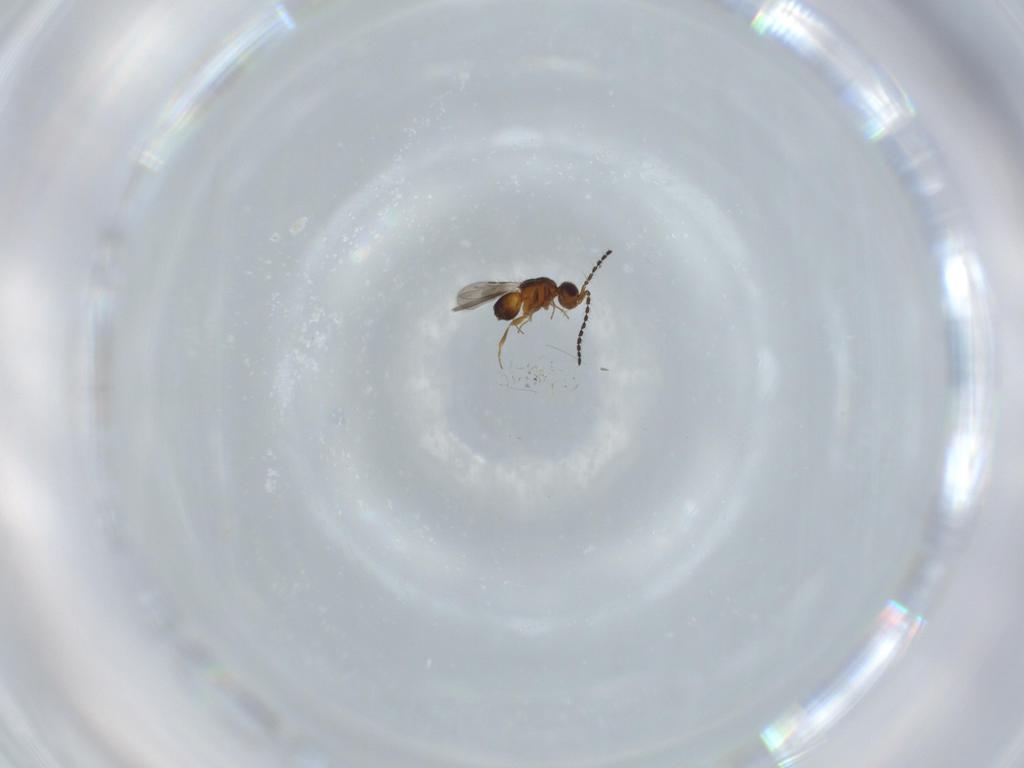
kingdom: Animalia
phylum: Arthropoda
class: Insecta
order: Hymenoptera
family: Ceraphronidae
